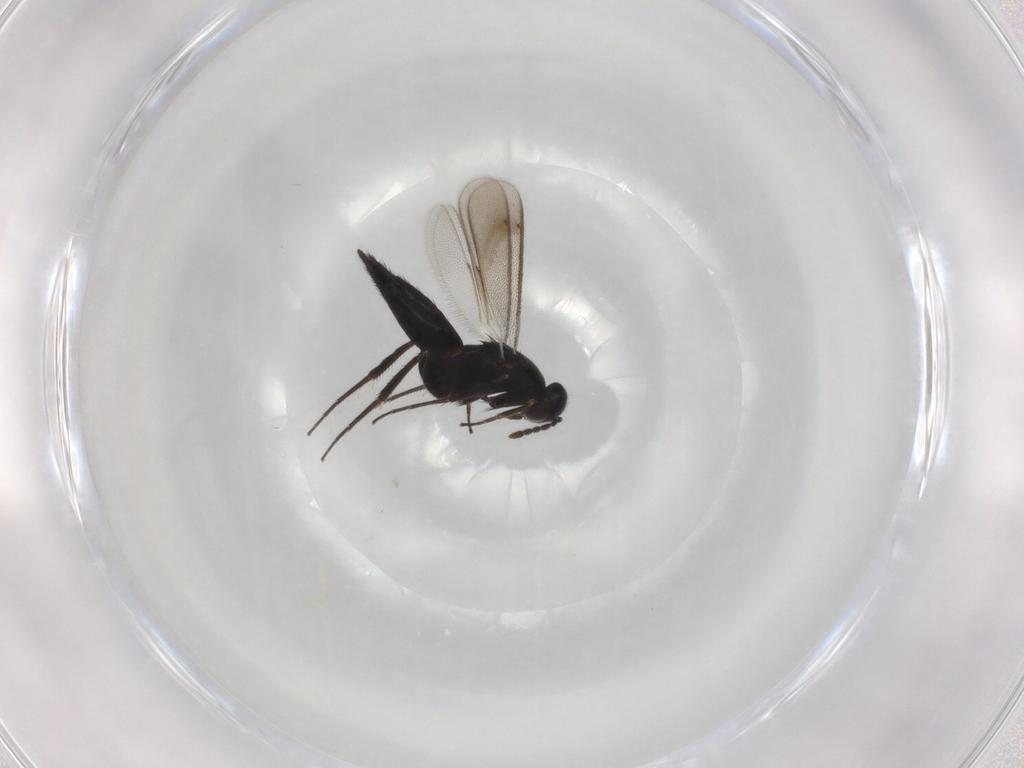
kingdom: Animalia
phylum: Arthropoda
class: Insecta
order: Hymenoptera
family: Eulophidae
